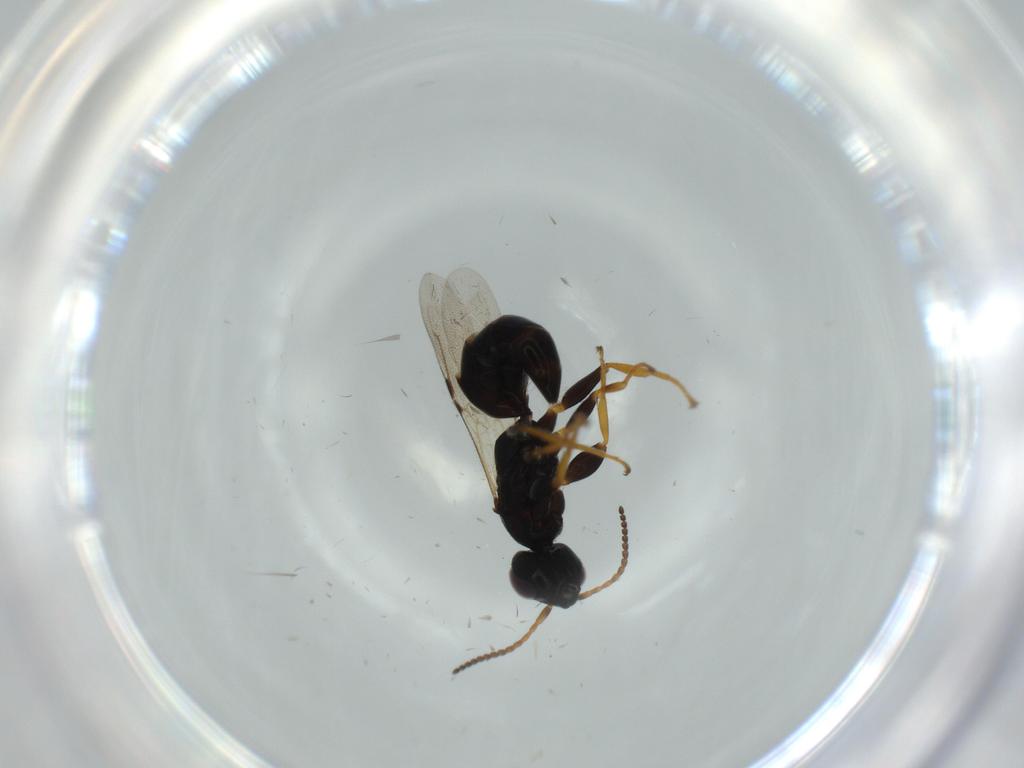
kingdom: Animalia
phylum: Arthropoda
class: Insecta
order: Hymenoptera
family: Bethylidae
